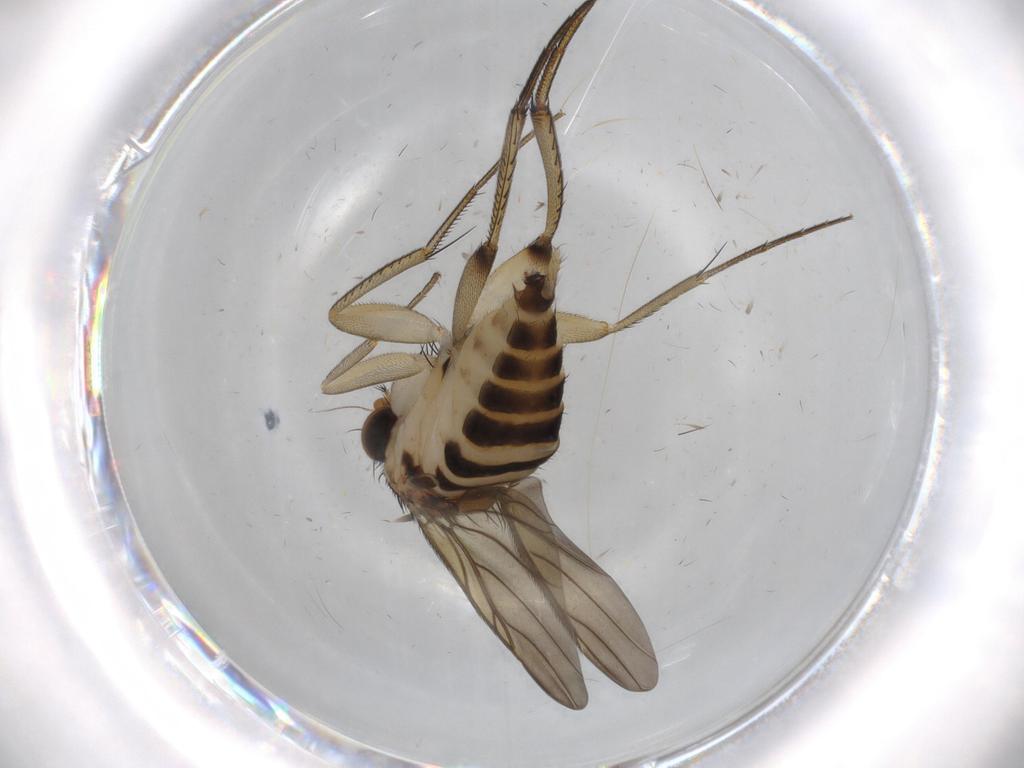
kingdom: Animalia
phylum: Arthropoda
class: Insecta
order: Diptera
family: Phoridae
